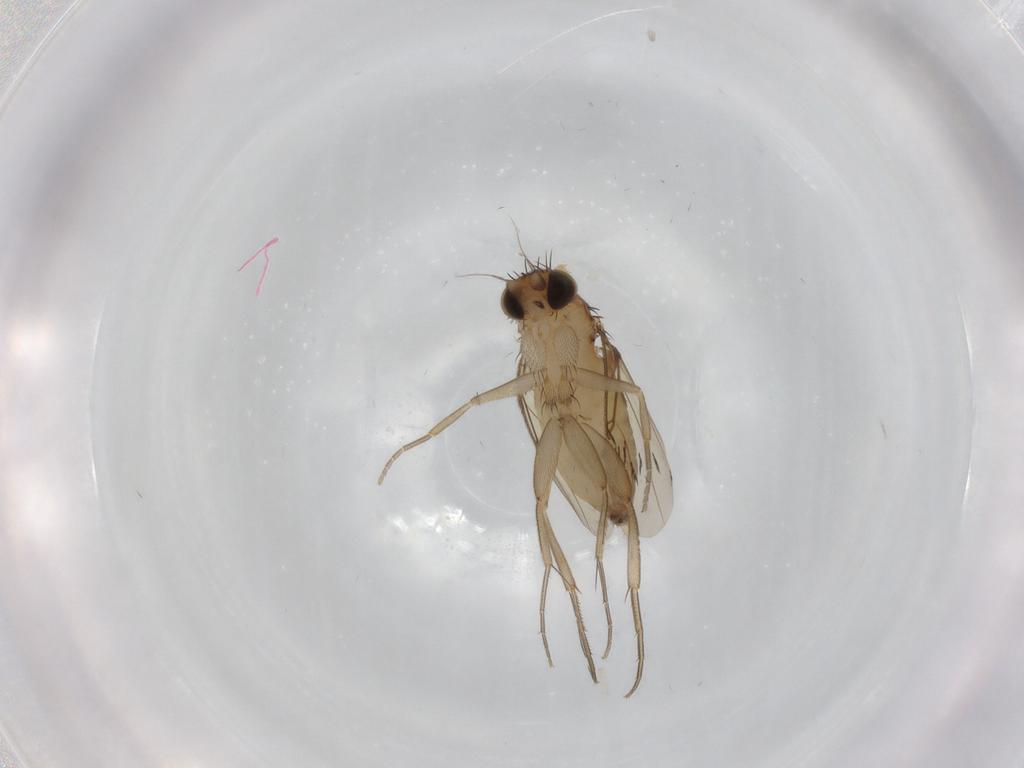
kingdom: Animalia
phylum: Arthropoda
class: Insecta
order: Diptera
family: Phoridae
